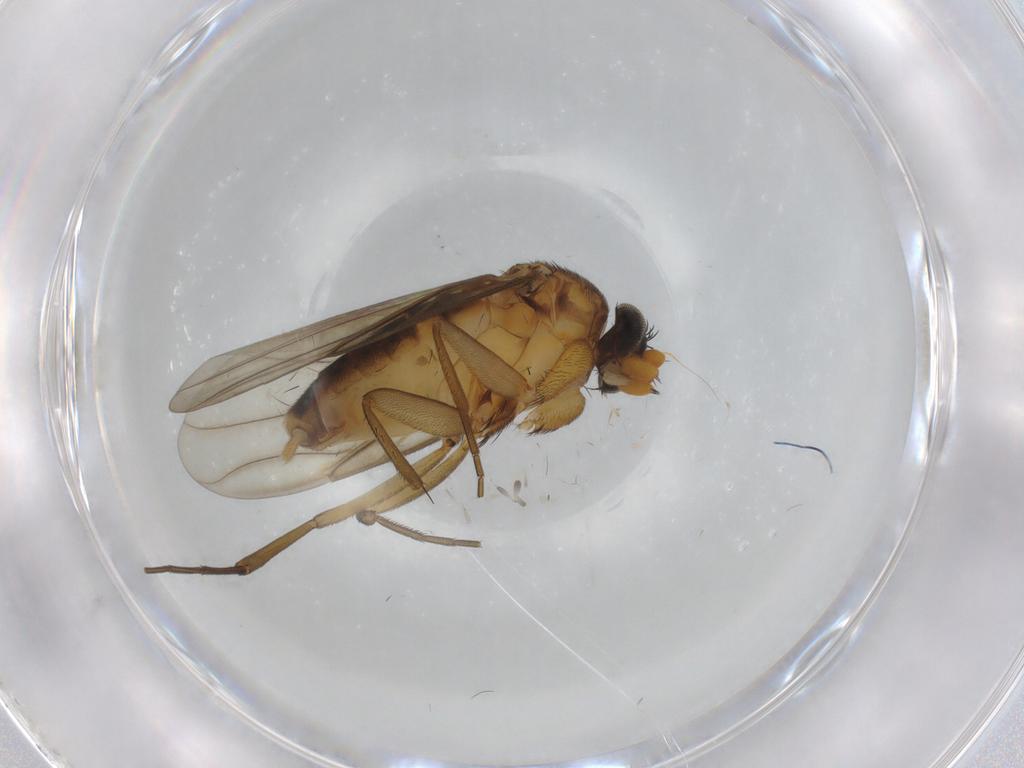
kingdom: Animalia
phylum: Arthropoda
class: Insecta
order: Diptera
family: Phoridae
